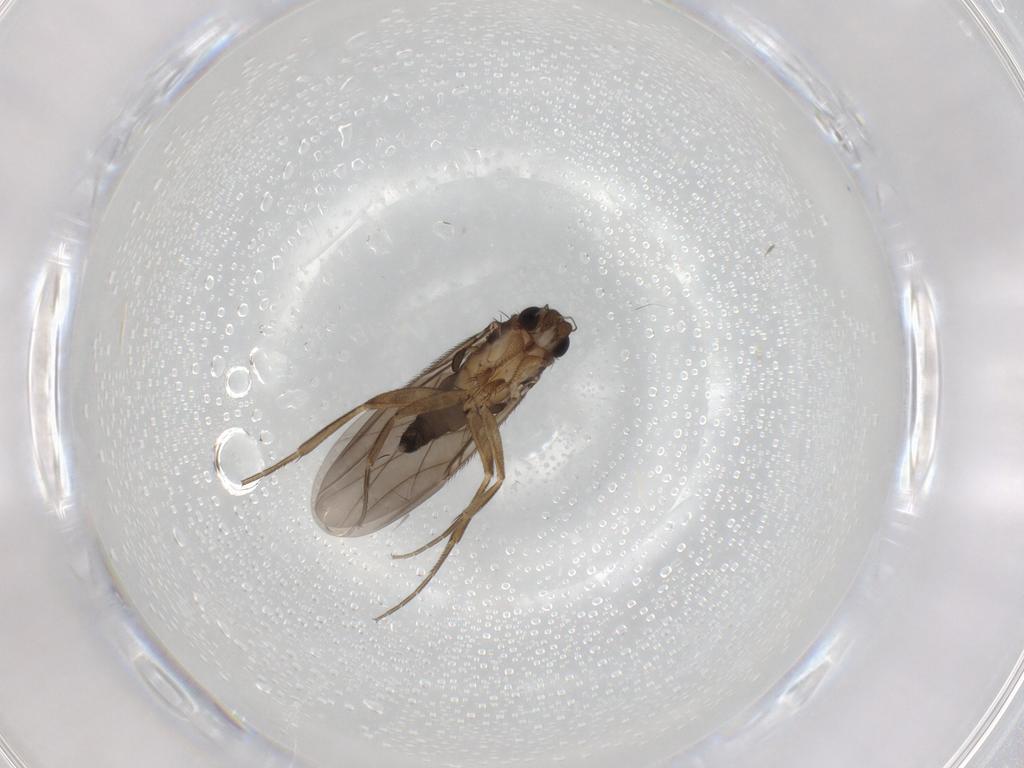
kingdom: Animalia
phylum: Arthropoda
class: Insecta
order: Diptera
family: Phoridae
